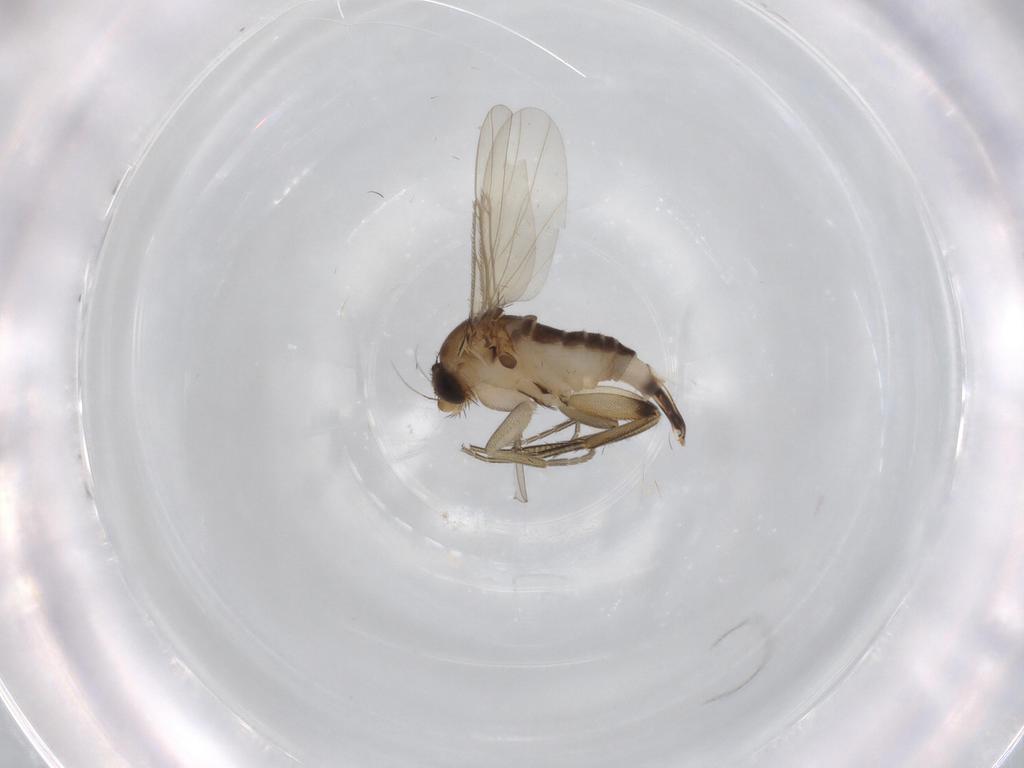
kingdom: Animalia
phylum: Arthropoda
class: Insecta
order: Diptera
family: Phoridae
